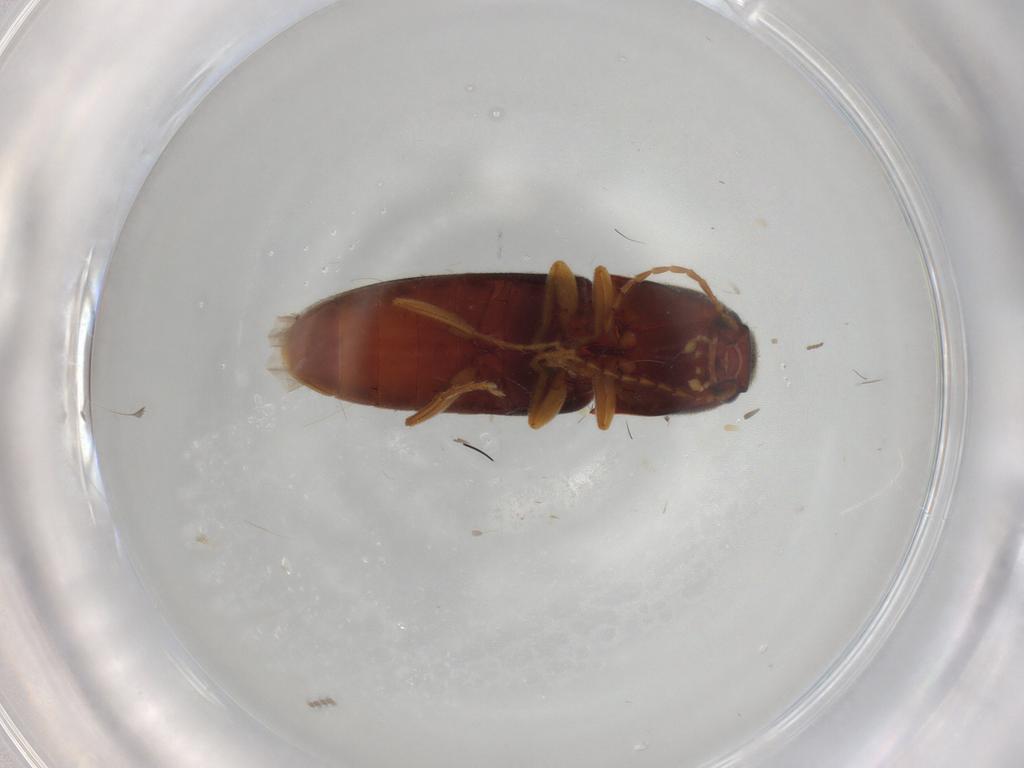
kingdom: Animalia
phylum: Arthropoda
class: Insecta
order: Coleoptera
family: Elateridae
